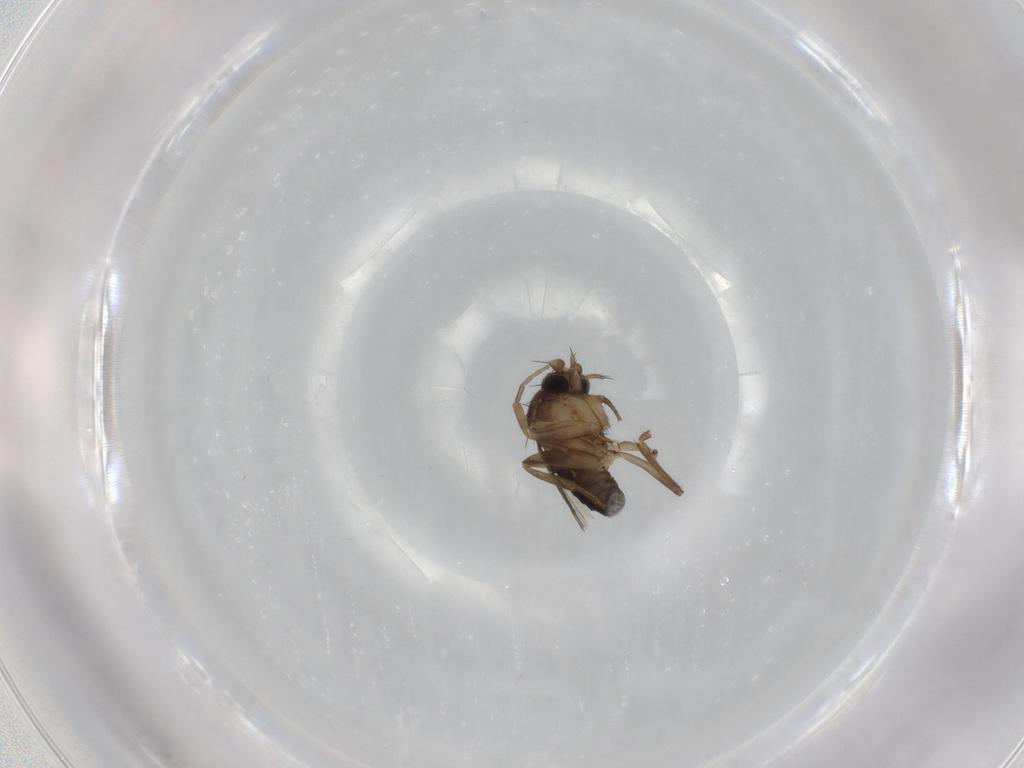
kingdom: Animalia
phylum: Arthropoda
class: Insecta
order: Diptera
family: Phoridae
